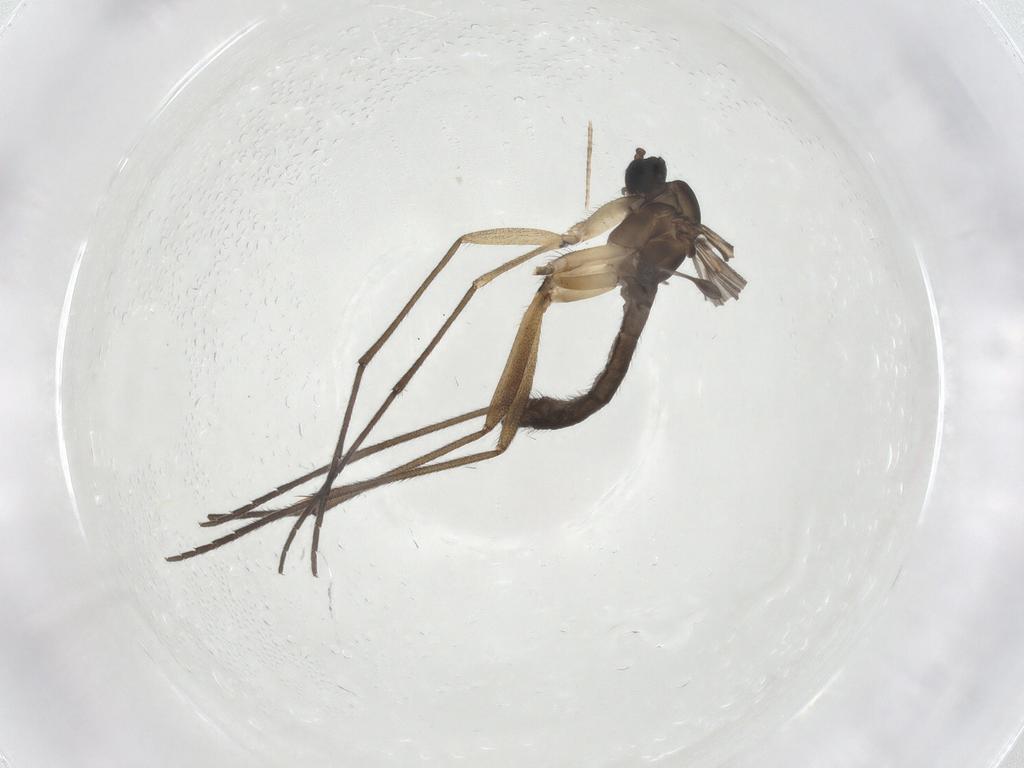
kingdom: Animalia
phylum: Arthropoda
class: Insecta
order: Diptera
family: Sciaridae
